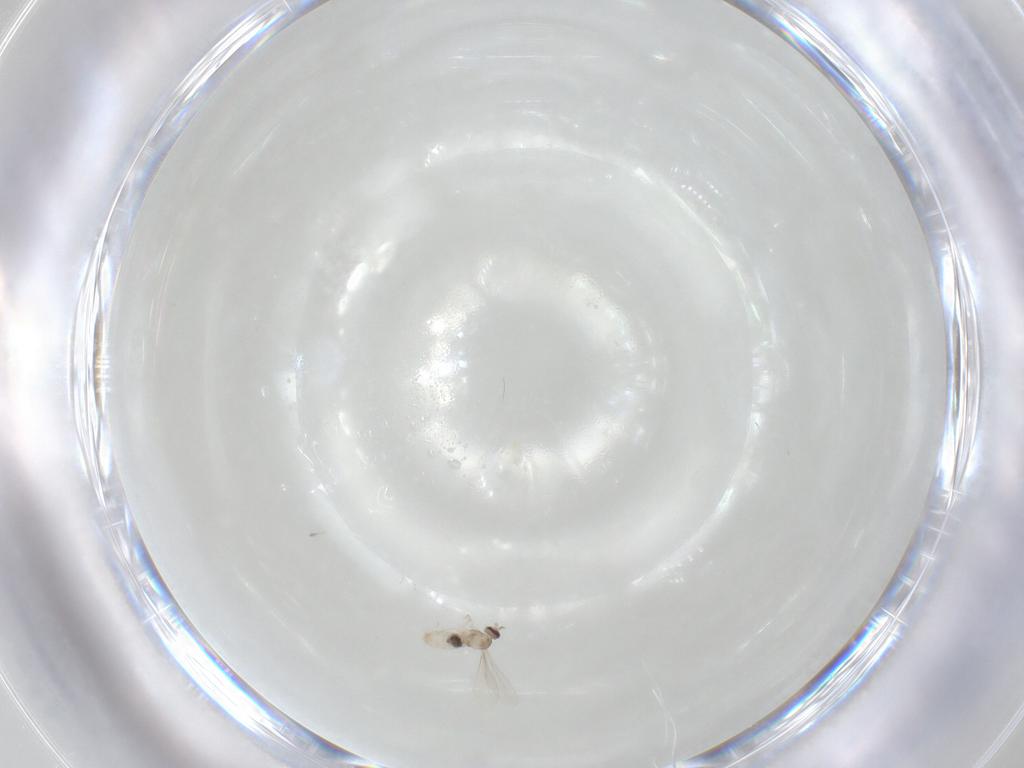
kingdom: Animalia
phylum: Arthropoda
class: Insecta
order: Diptera
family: Cecidomyiidae
